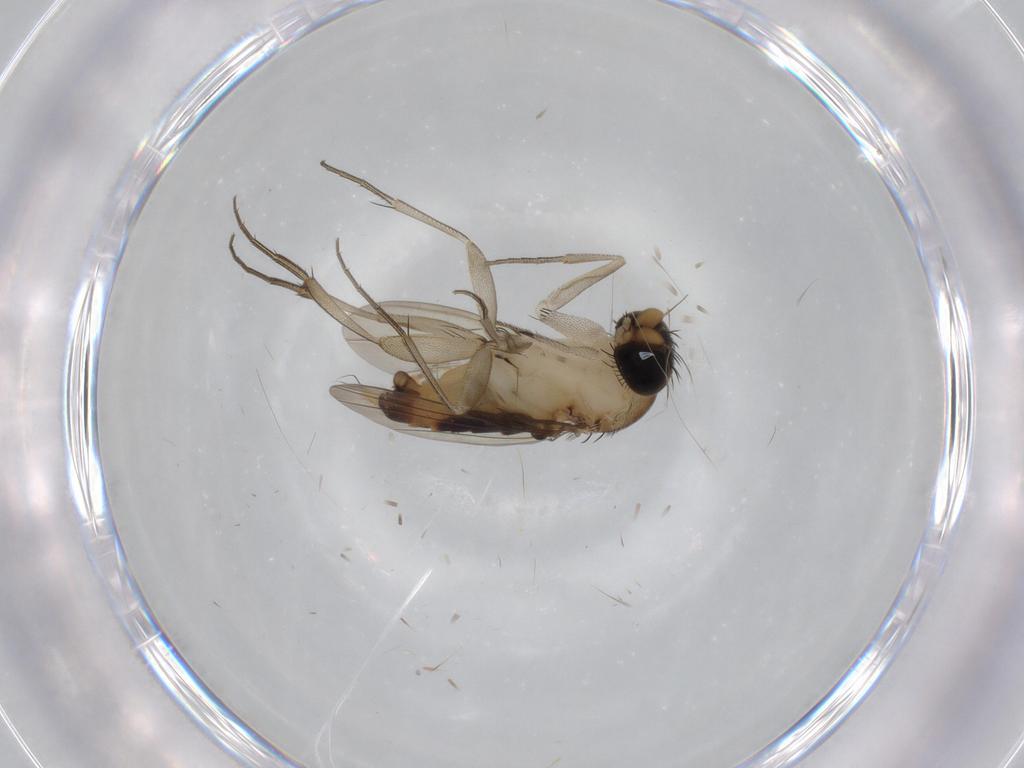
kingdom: Animalia
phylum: Arthropoda
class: Insecta
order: Diptera
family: Phoridae
